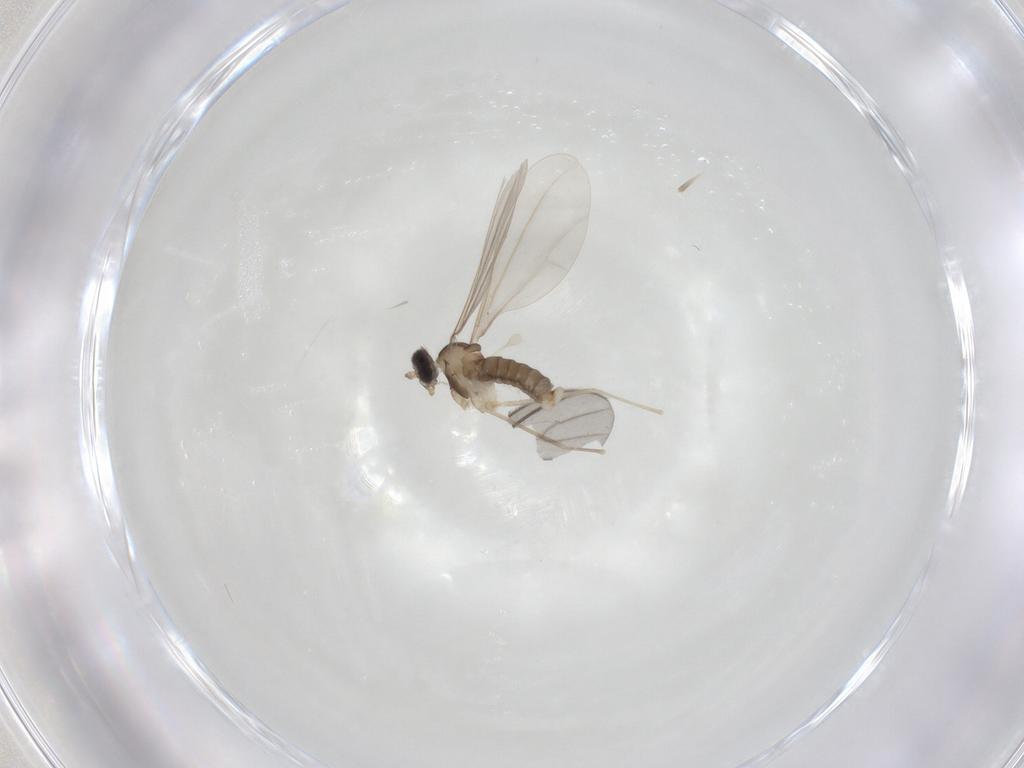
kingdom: Animalia
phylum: Arthropoda
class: Insecta
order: Diptera
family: Cecidomyiidae
